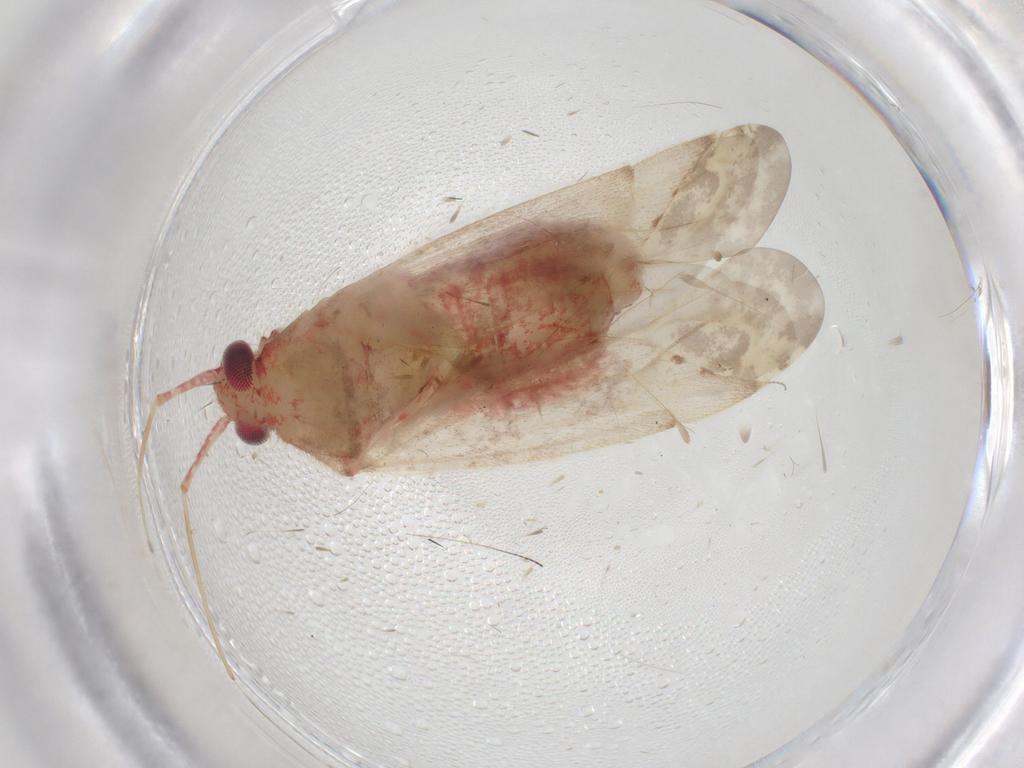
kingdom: Animalia
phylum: Arthropoda
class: Insecta
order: Hemiptera
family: Miridae
